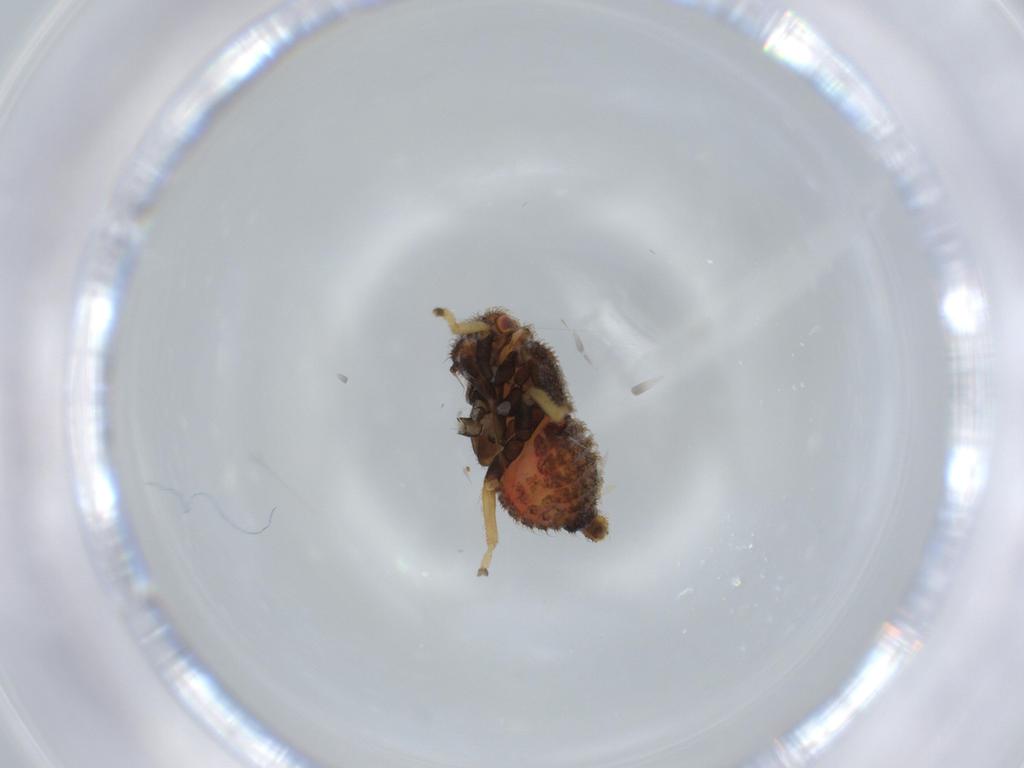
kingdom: Animalia
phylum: Arthropoda
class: Insecta
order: Hemiptera
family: Membracidae
